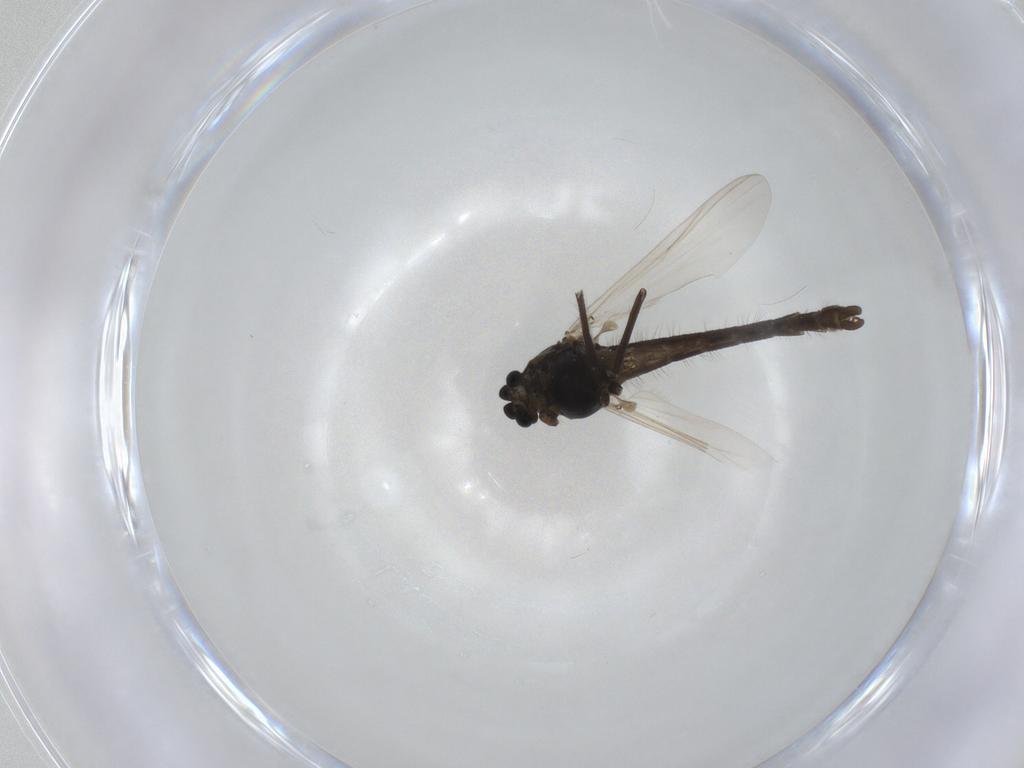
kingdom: Animalia
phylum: Arthropoda
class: Insecta
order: Diptera
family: Chironomidae
